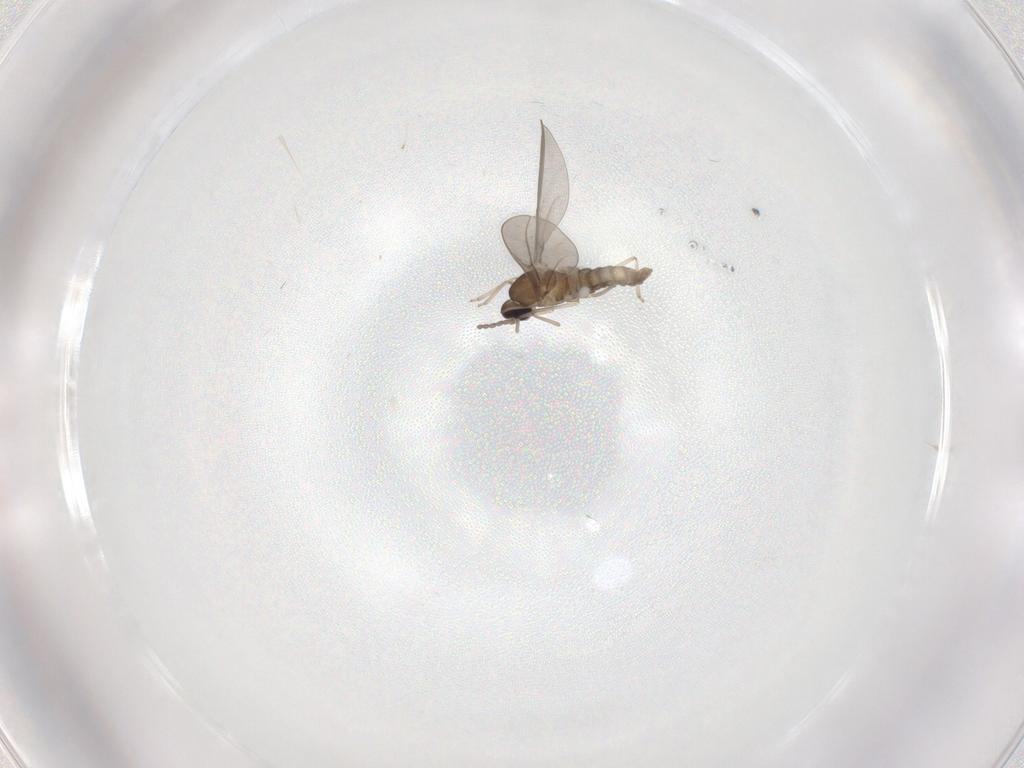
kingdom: Animalia
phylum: Arthropoda
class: Insecta
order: Diptera
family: Cecidomyiidae
